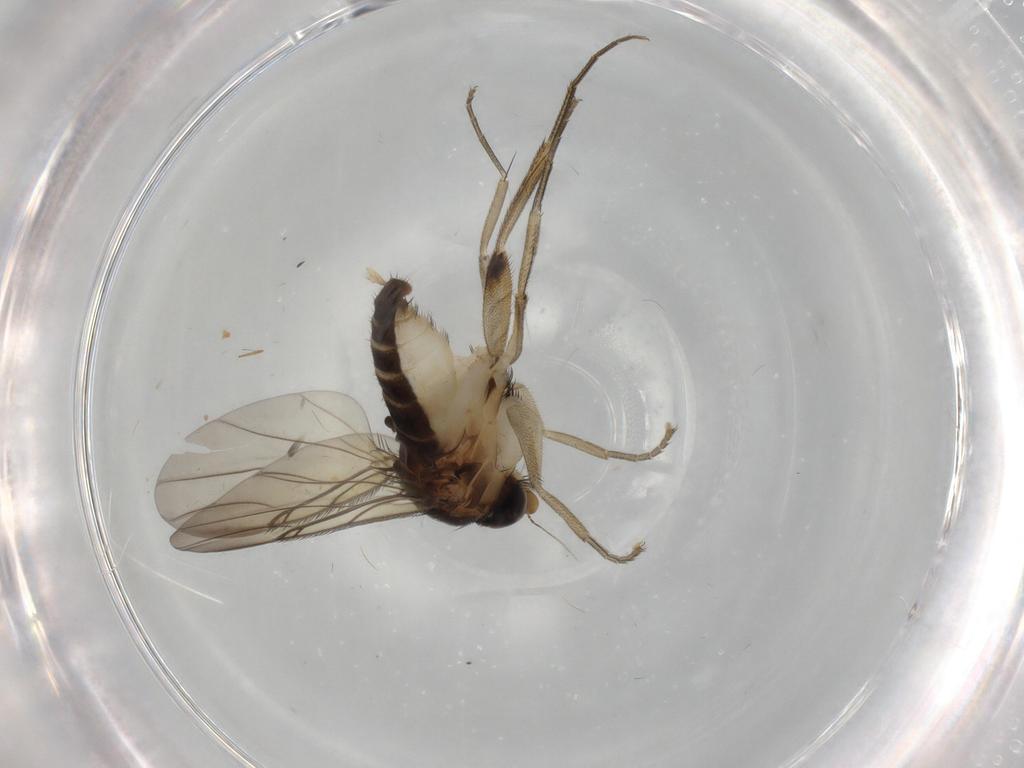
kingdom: Animalia
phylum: Arthropoda
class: Insecta
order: Diptera
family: Phoridae
